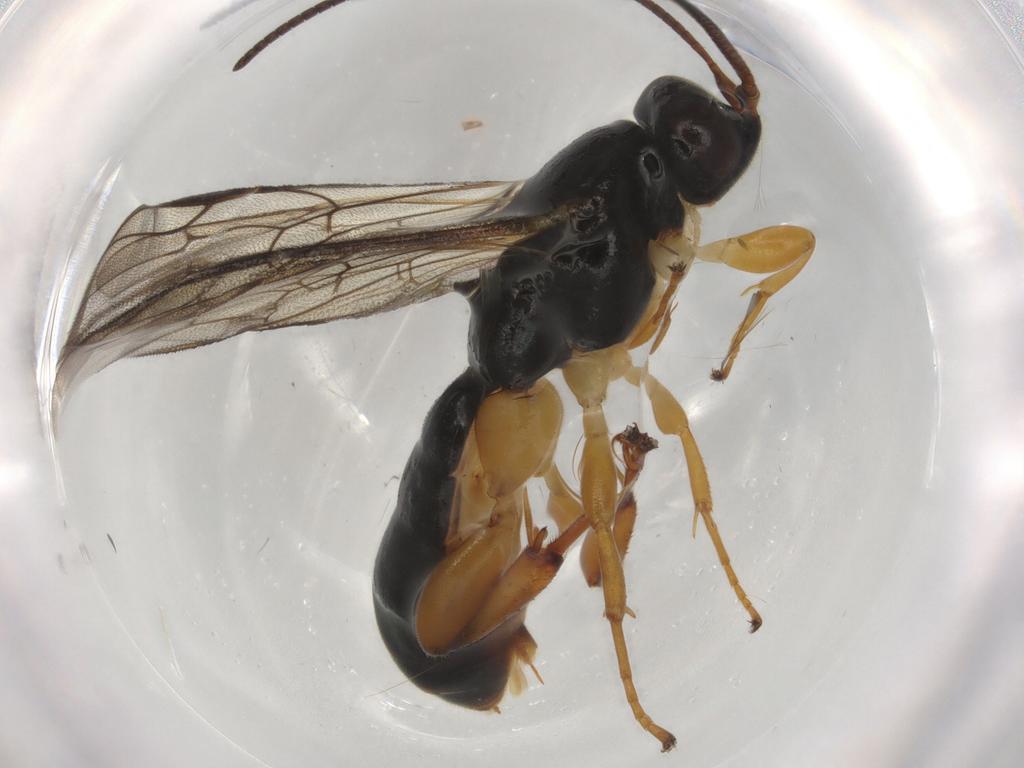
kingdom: Animalia
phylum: Arthropoda
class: Insecta
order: Hymenoptera
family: Ichneumonidae
